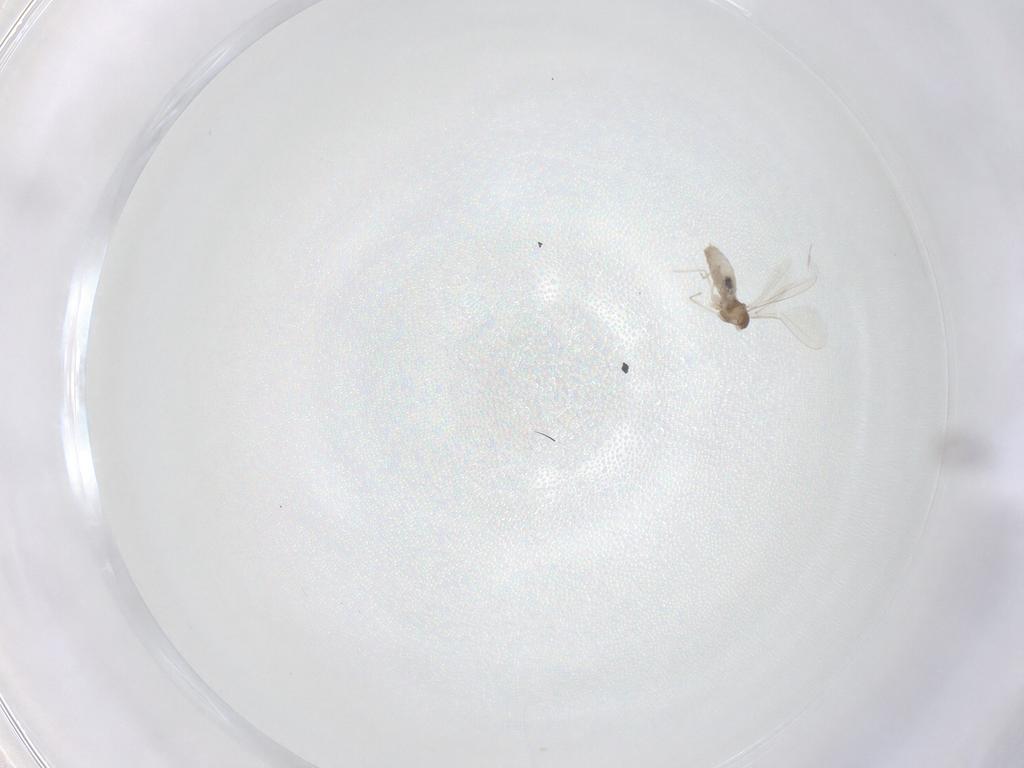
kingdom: Animalia
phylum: Arthropoda
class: Insecta
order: Diptera
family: Cecidomyiidae
